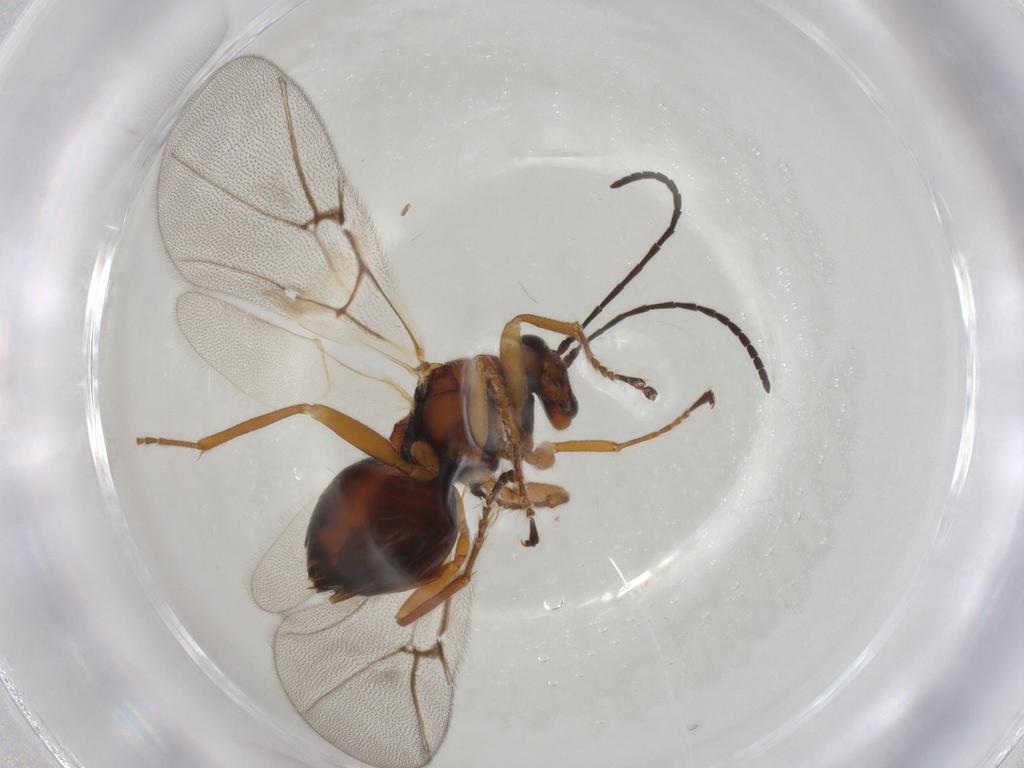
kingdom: Animalia
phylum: Arthropoda
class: Insecta
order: Hymenoptera
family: Cynipidae
